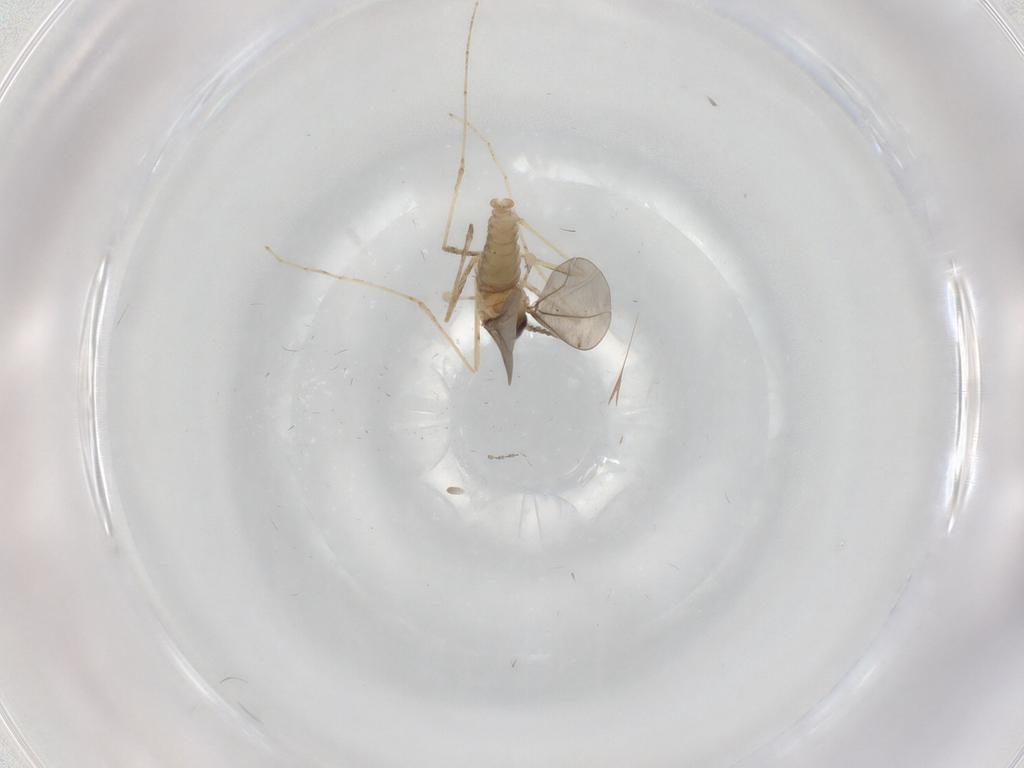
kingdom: Animalia
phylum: Arthropoda
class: Insecta
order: Diptera
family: Cecidomyiidae
